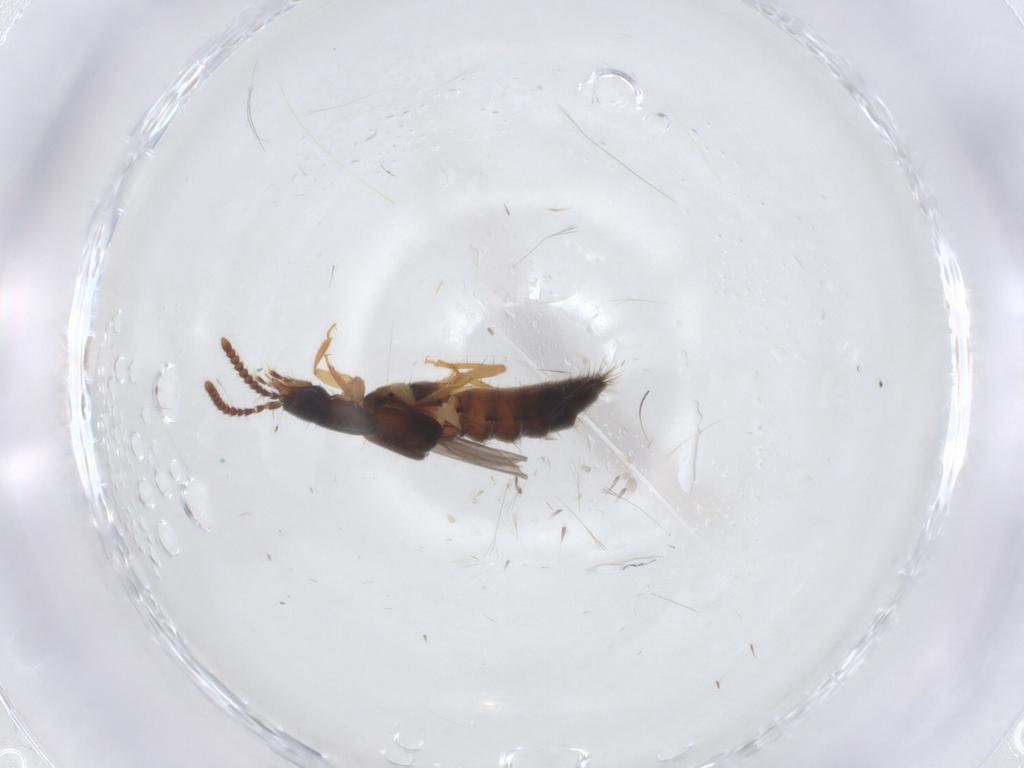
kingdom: Animalia
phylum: Arthropoda
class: Insecta
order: Coleoptera
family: Staphylinidae
